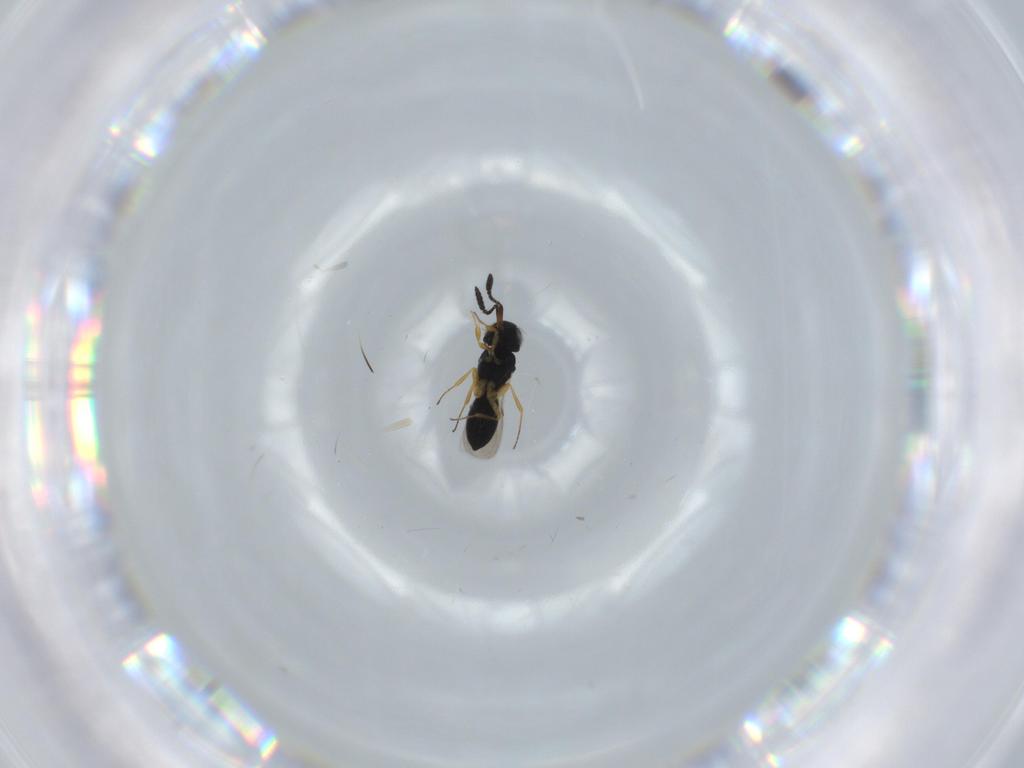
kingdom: Animalia
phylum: Arthropoda
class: Insecta
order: Hymenoptera
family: Scelionidae
